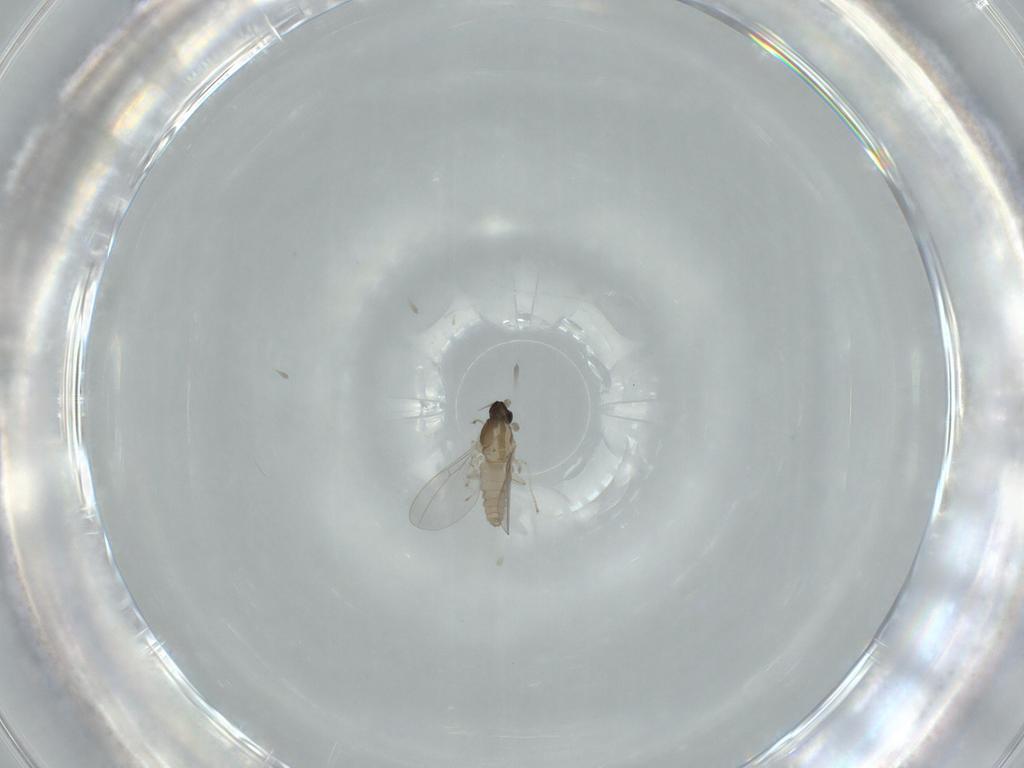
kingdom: Animalia
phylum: Arthropoda
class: Insecta
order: Diptera
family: Cecidomyiidae
